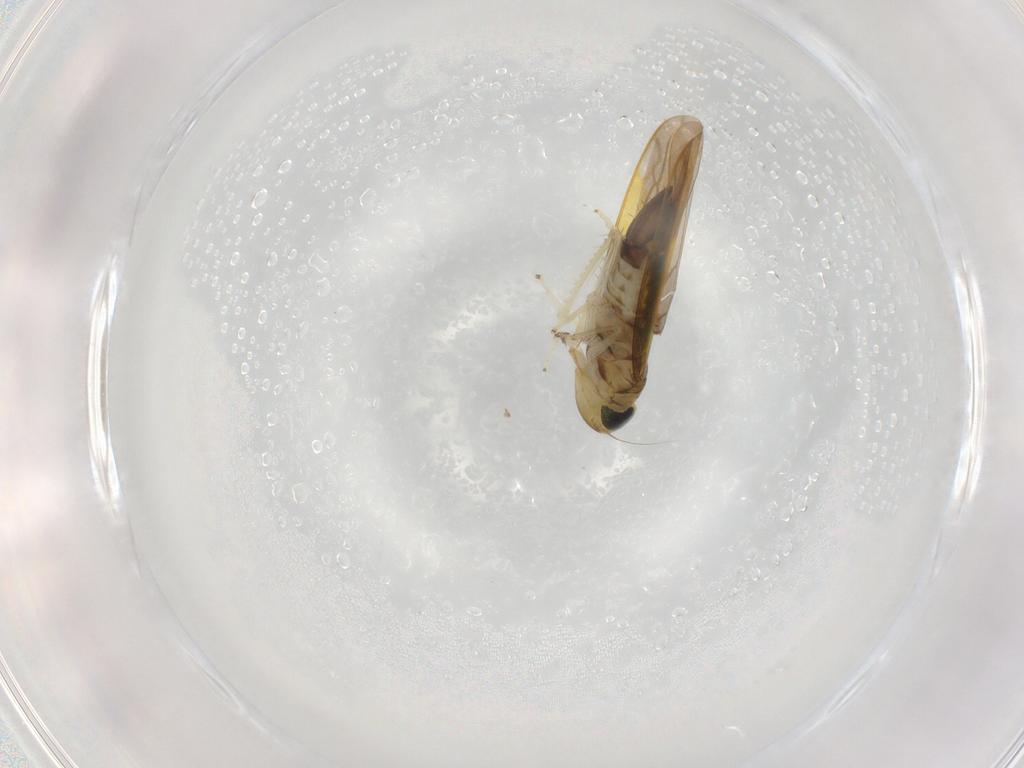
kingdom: Animalia
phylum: Arthropoda
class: Insecta
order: Hemiptera
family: Cicadellidae
